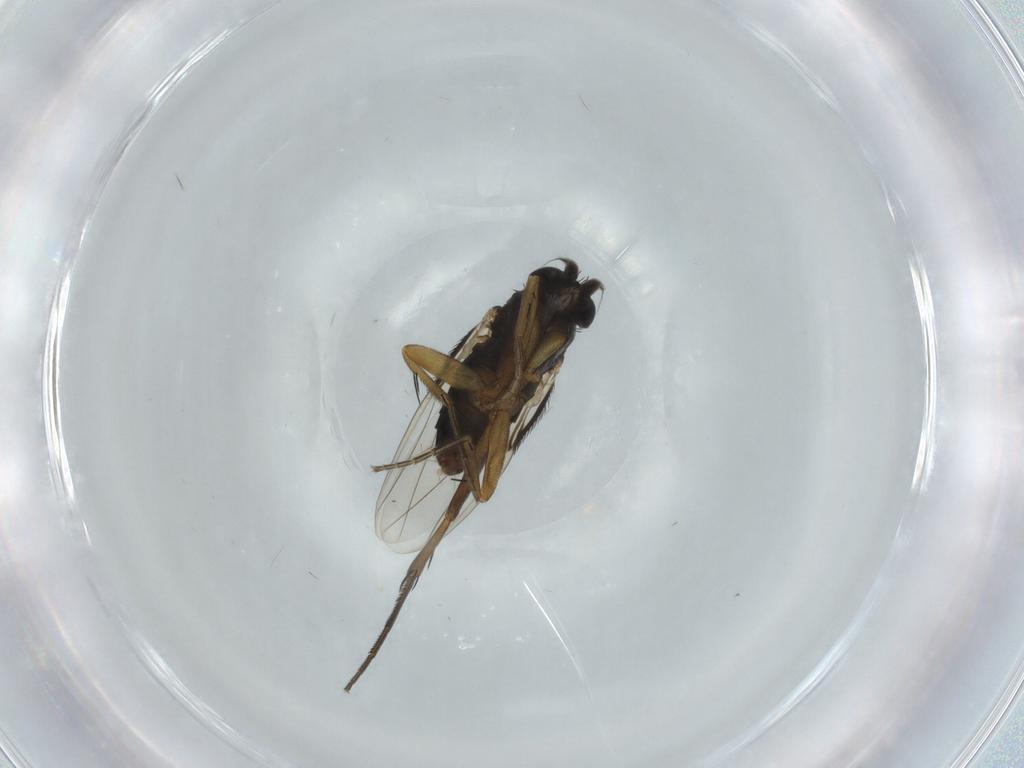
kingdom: Animalia
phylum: Arthropoda
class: Insecta
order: Diptera
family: Phoridae
